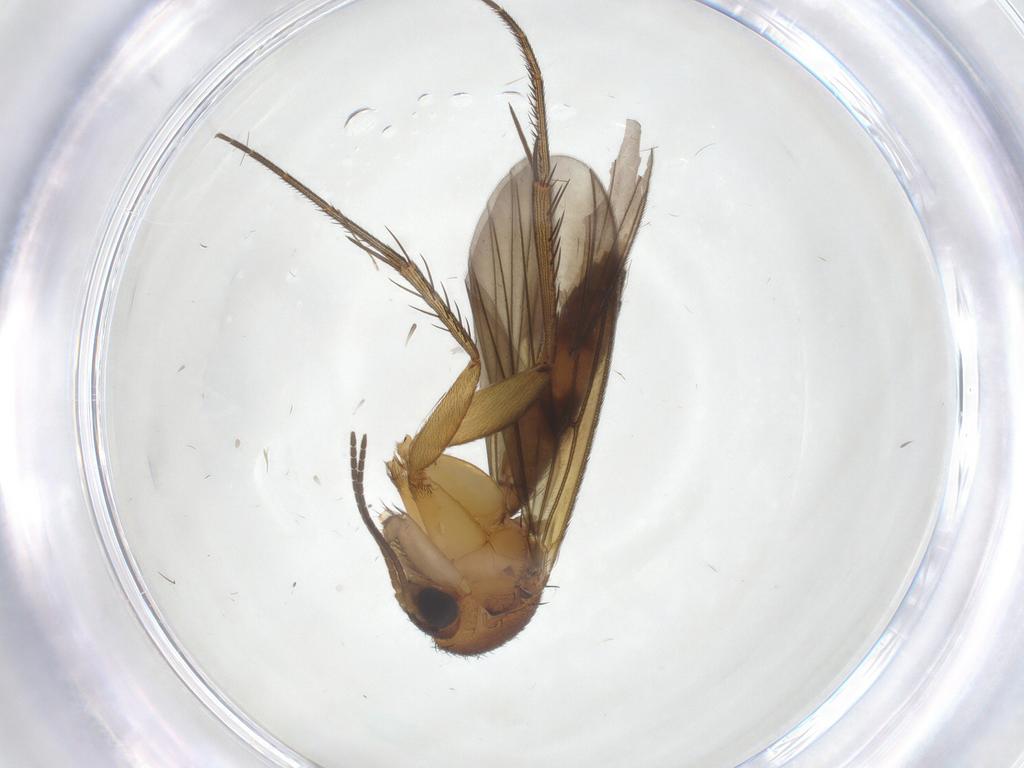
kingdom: Animalia
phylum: Arthropoda
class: Insecta
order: Diptera
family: Mycetophilidae
